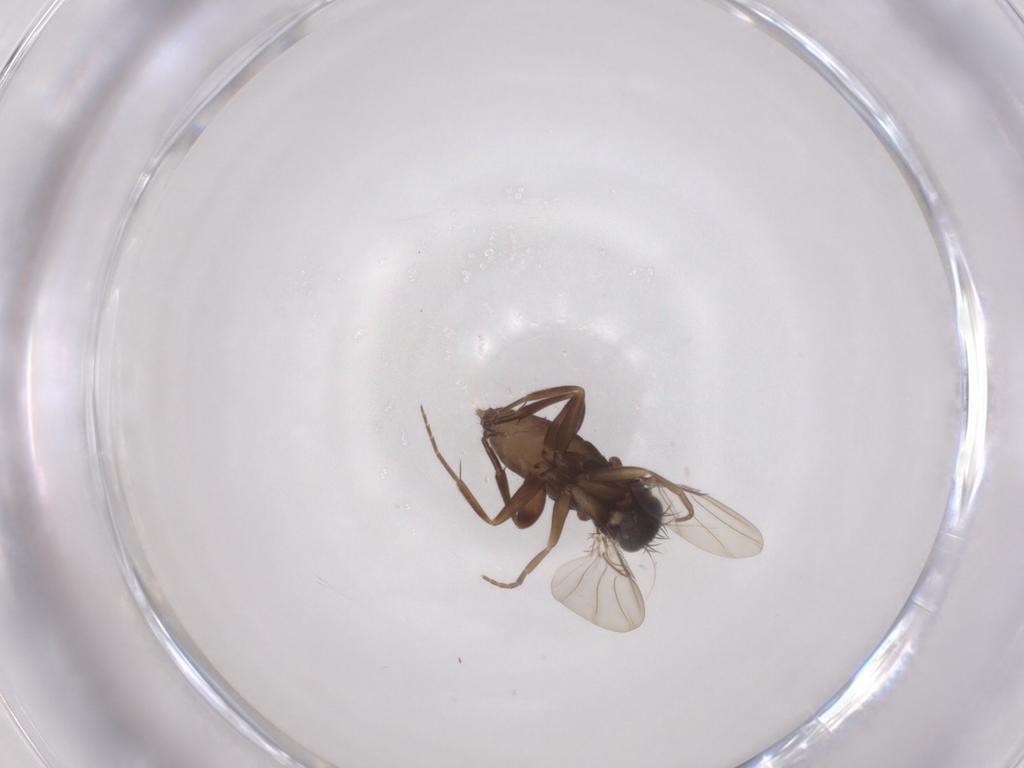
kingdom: Animalia
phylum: Arthropoda
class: Insecta
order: Diptera
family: Phoridae
